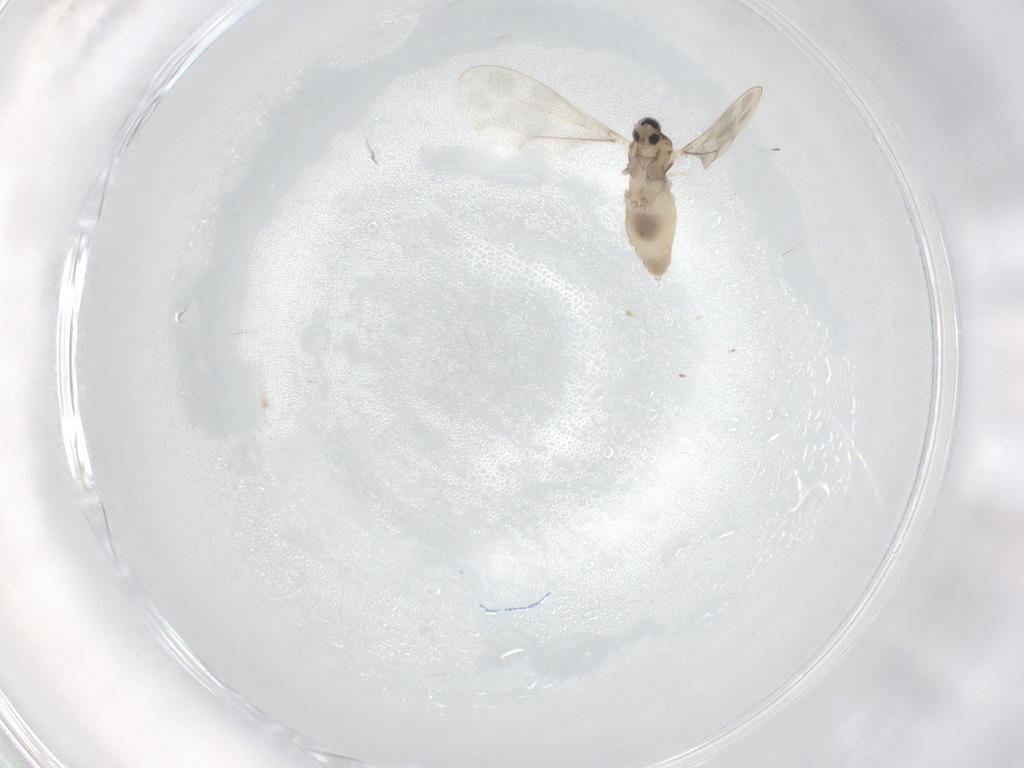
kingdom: Animalia
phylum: Arthropoda
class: Insecta
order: Diptera
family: Cecidomyiidae
